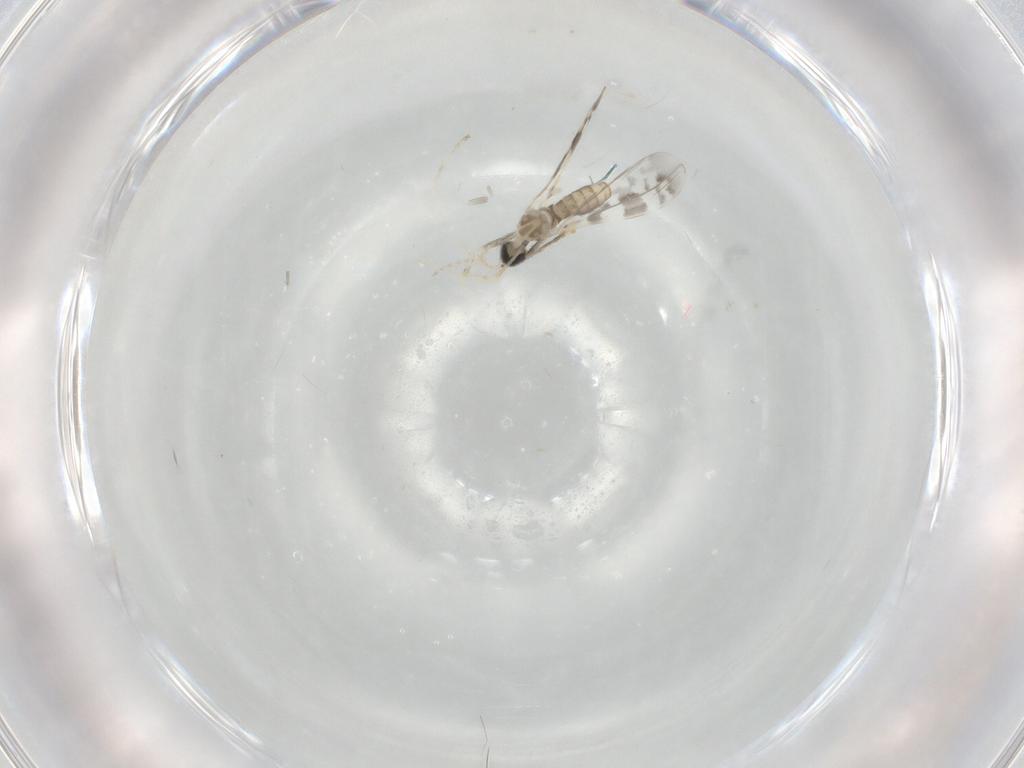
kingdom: Animalia
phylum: Arthropoda
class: Insecta
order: Diptera
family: Cecidomyiidae
